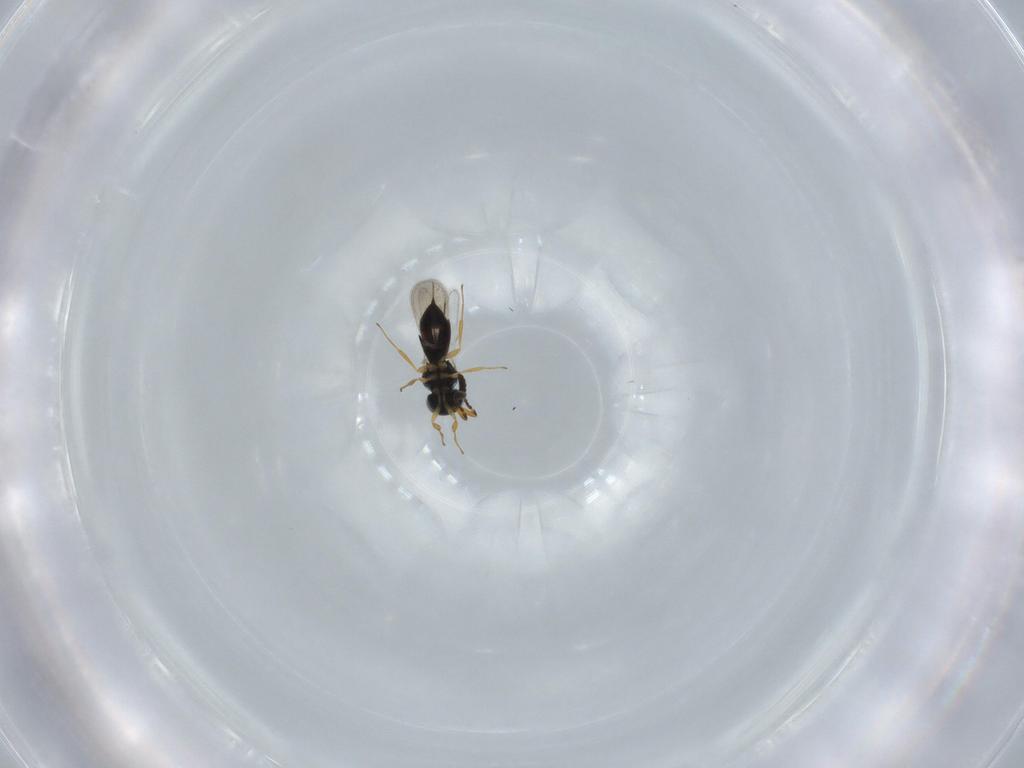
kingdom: Animalia
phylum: Arthropoda
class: Insecta
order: Hymenoptera
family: Scelionidae
